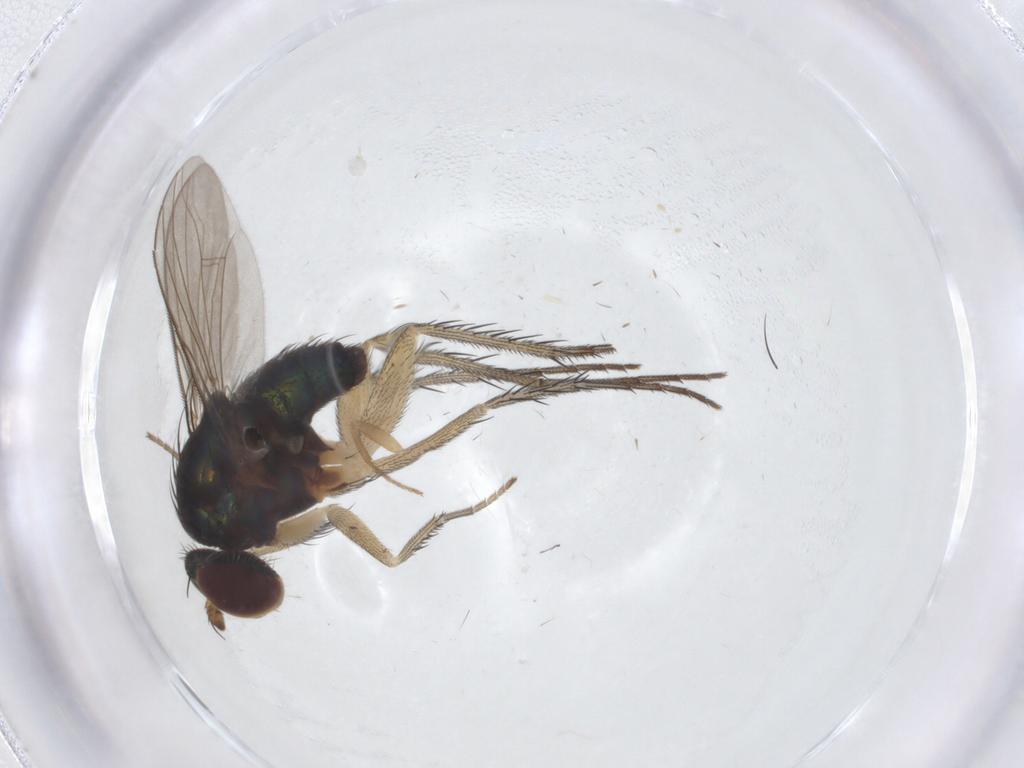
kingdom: Animalia
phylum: Arthropoda
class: Insecta
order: Diptera
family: Dolichopodidae
